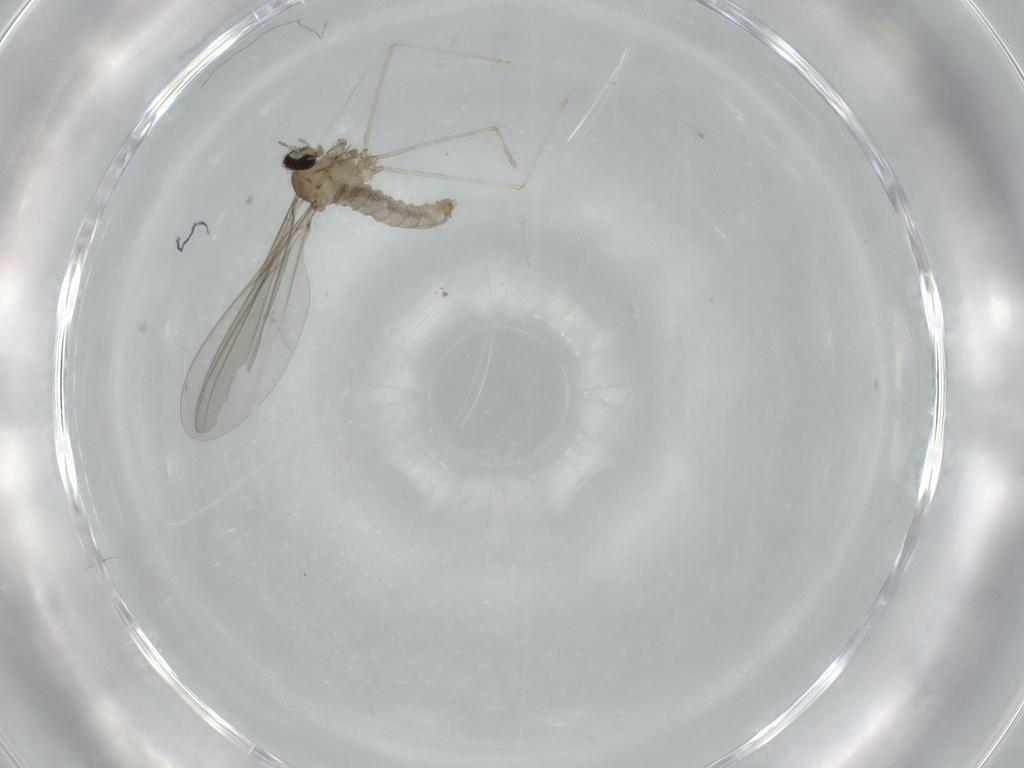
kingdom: Animalia
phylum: Arthropoda
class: Insecta
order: Diptera
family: Cecidomyiidae
